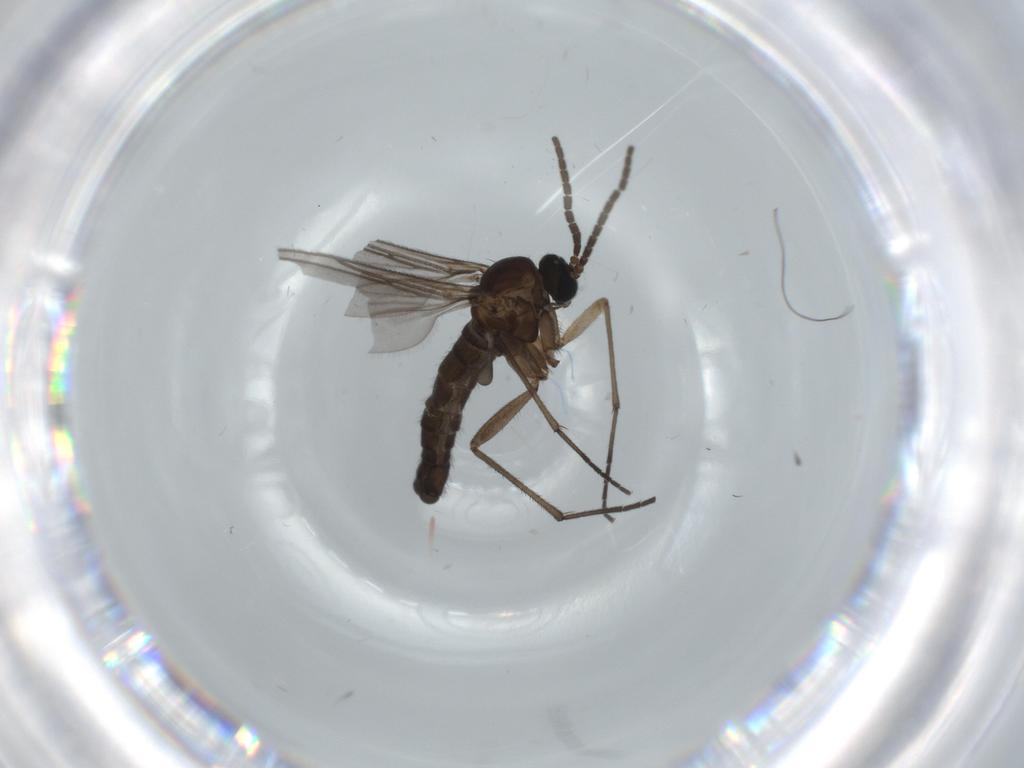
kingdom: Animalia
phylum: Arthropoda
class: Insecta
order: Diptera
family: Sciaridae
